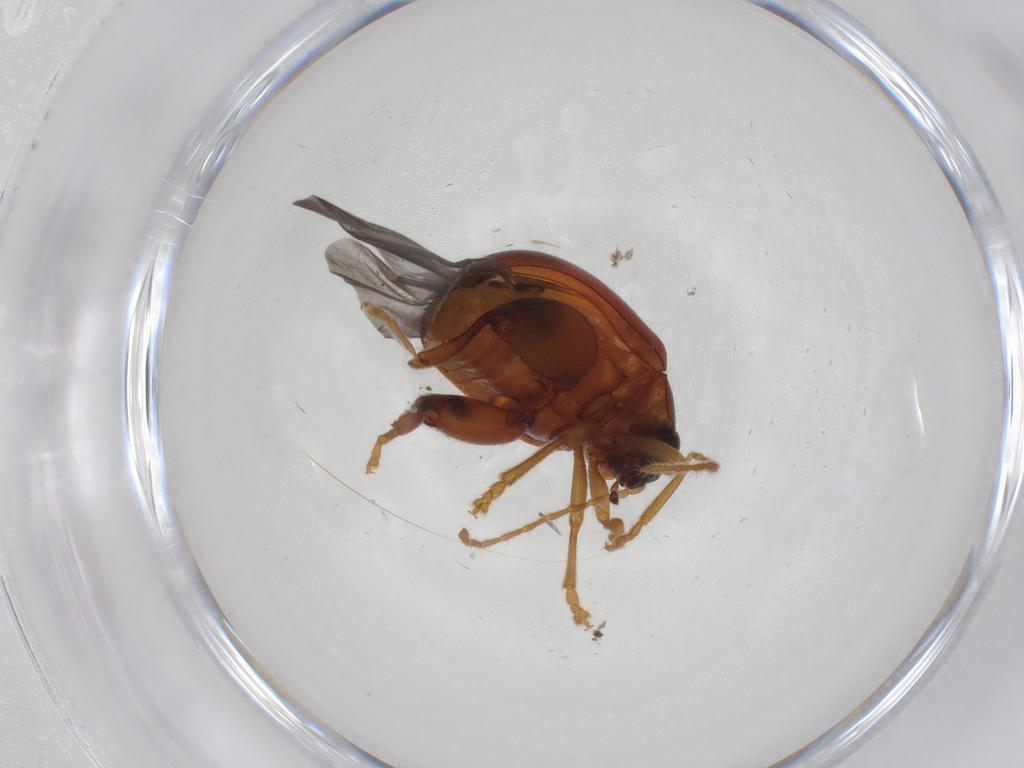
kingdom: Animalia
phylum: Arthropoda
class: Insecta
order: Coleoptera
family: Chrysomelidae
